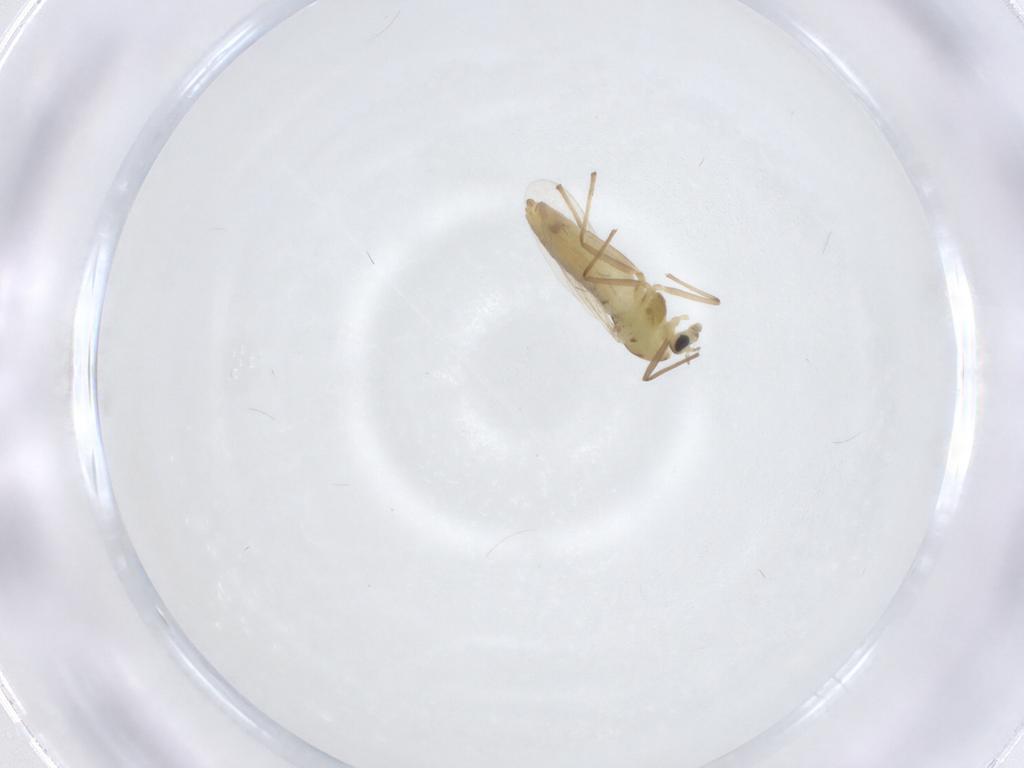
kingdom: Animalia
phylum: Arthropoda
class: Insecta
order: Diptera
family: Chironomidae
